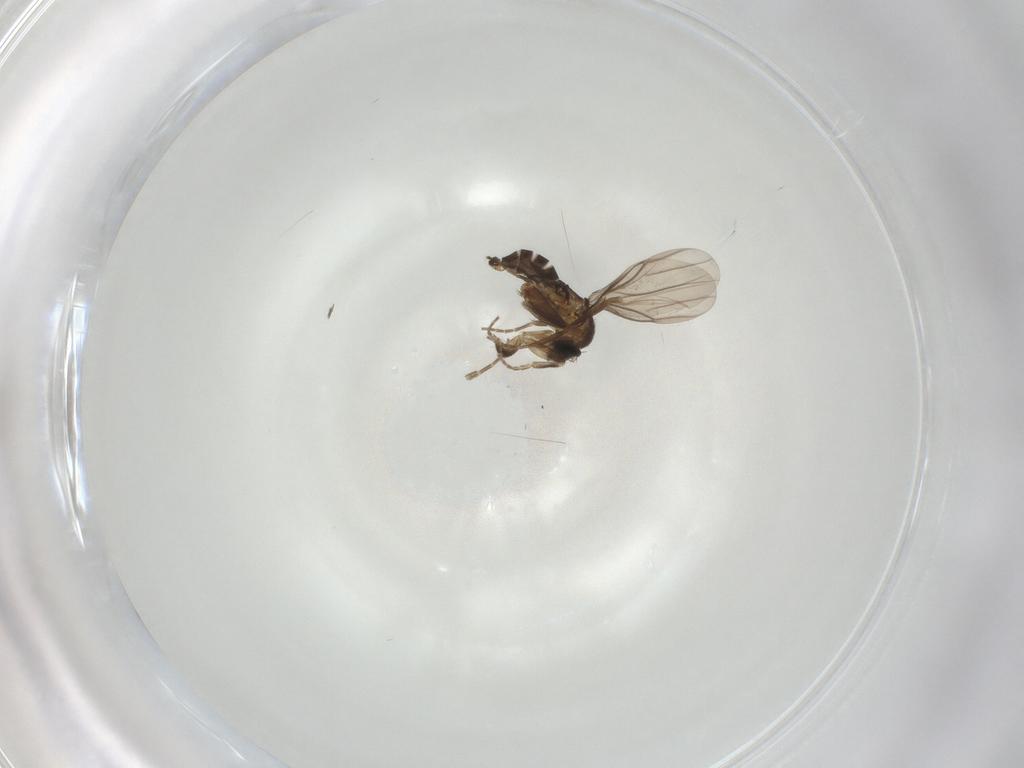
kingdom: Animalia
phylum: Arthropoda
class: Insecta
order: Diptera
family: Phoridae
